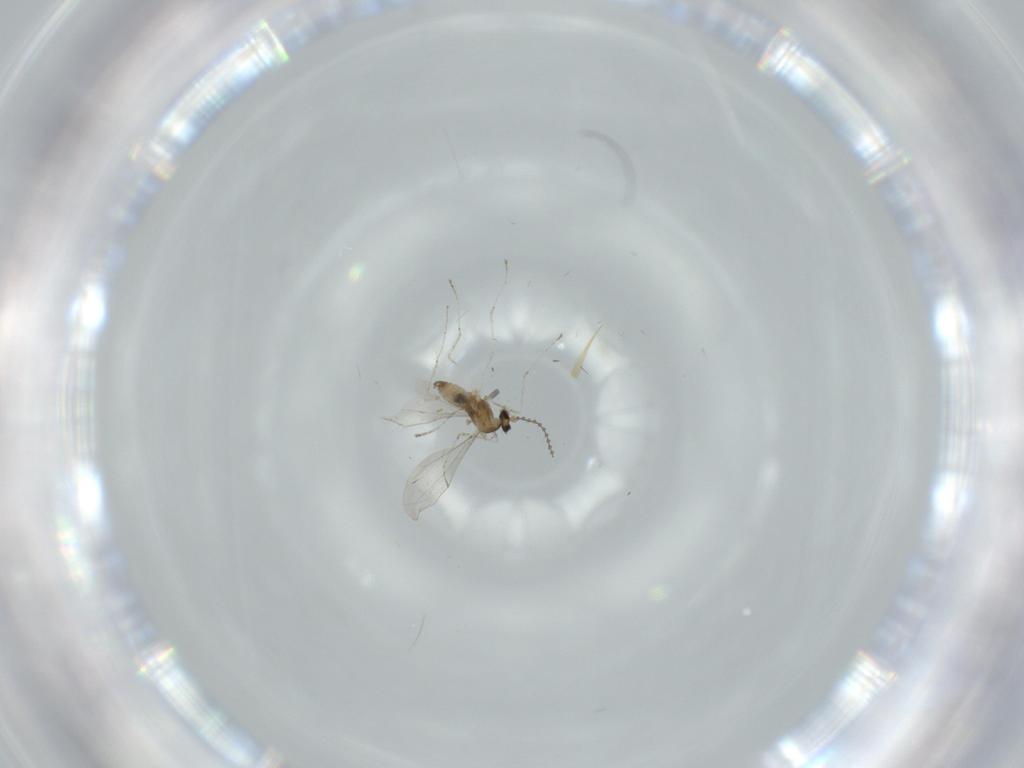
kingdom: Animalia
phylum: Arthropoda
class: Insecta
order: Diptera
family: Cecidomyiidae
